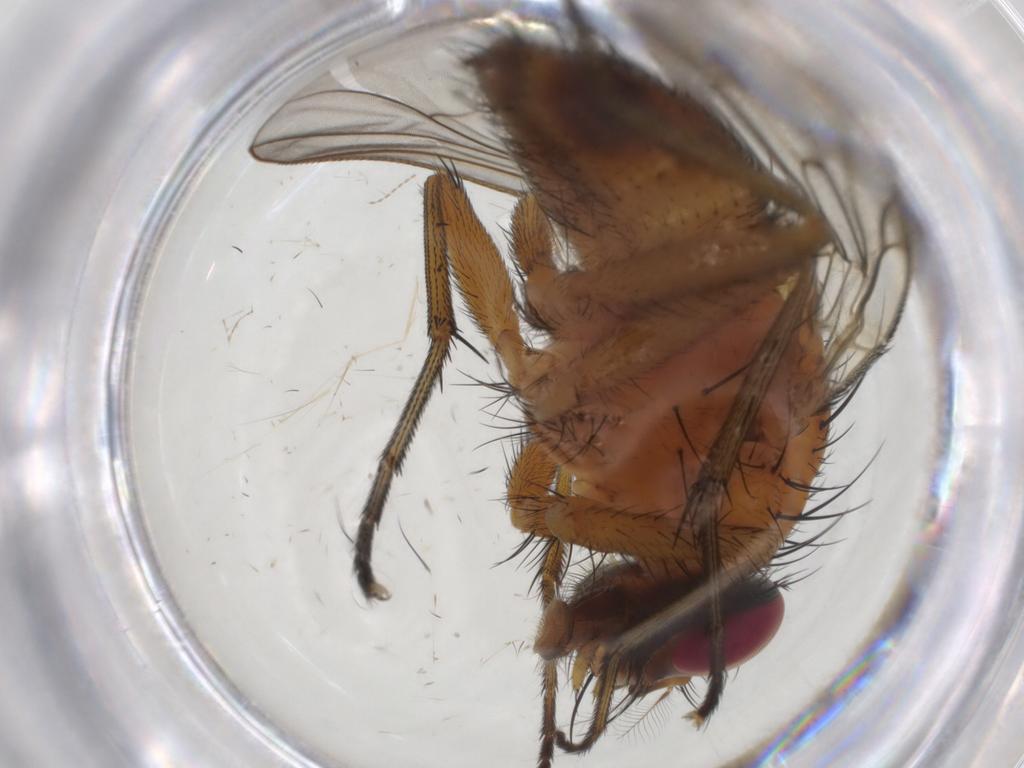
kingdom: Animalia
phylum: Arthropoda
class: Insecta
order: Diptera
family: Muscidae
